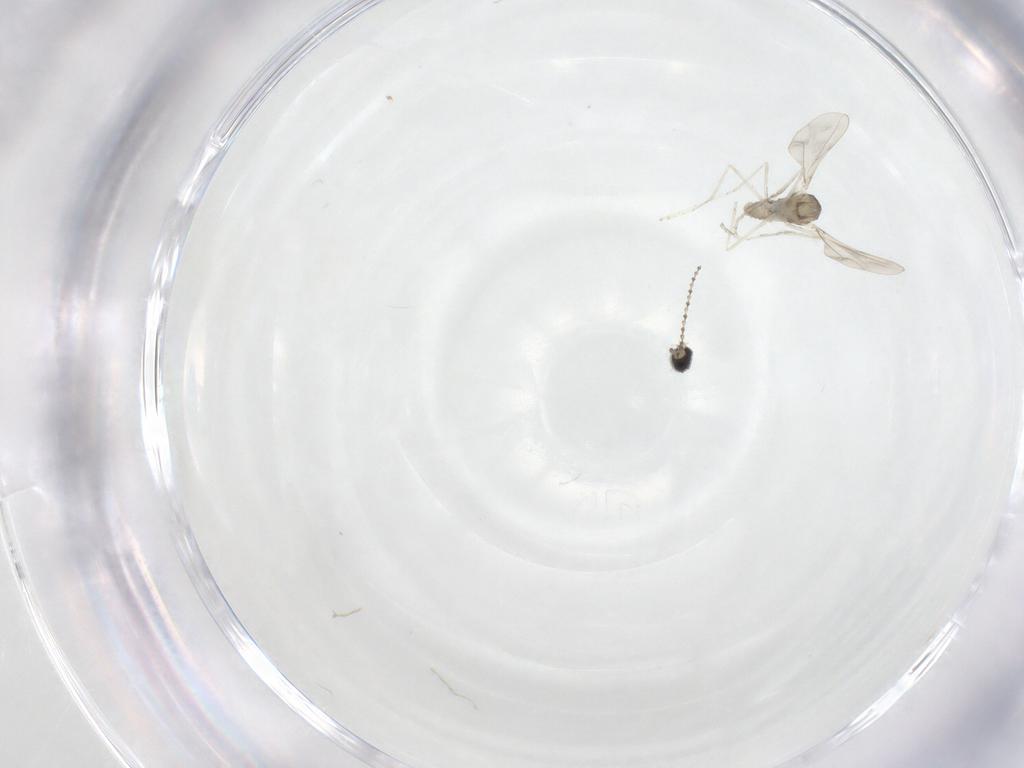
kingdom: Animalia
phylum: Arthropoda
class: Insecta
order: Diptera
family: Cecidomyiidae
